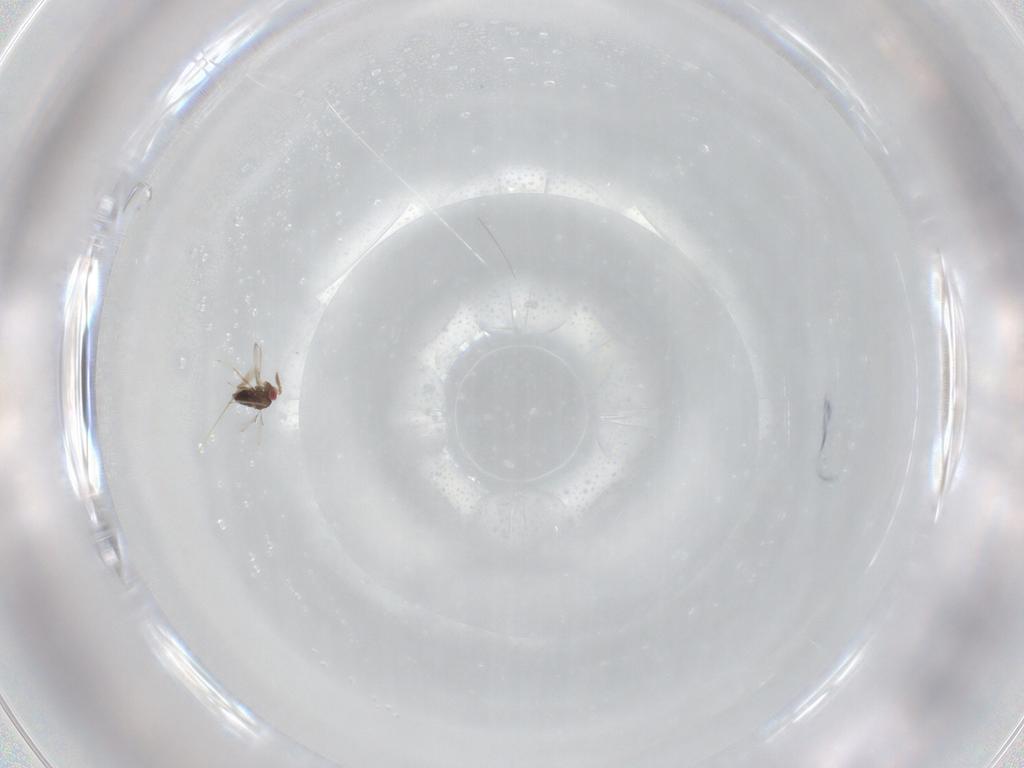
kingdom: Animalia
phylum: Arthropoda
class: Insecta
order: Hymenoptera
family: Trichogrammatidae
